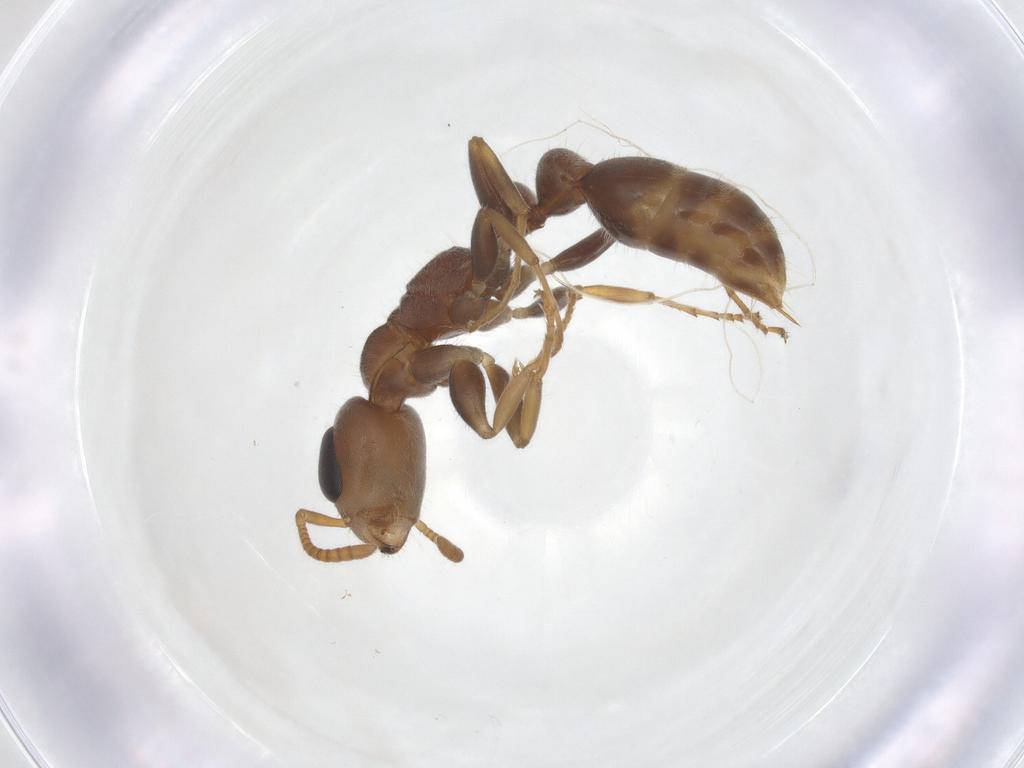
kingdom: Animalia
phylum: Arthropoda
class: Insecta
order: Hymenoptera
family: Formicidae
